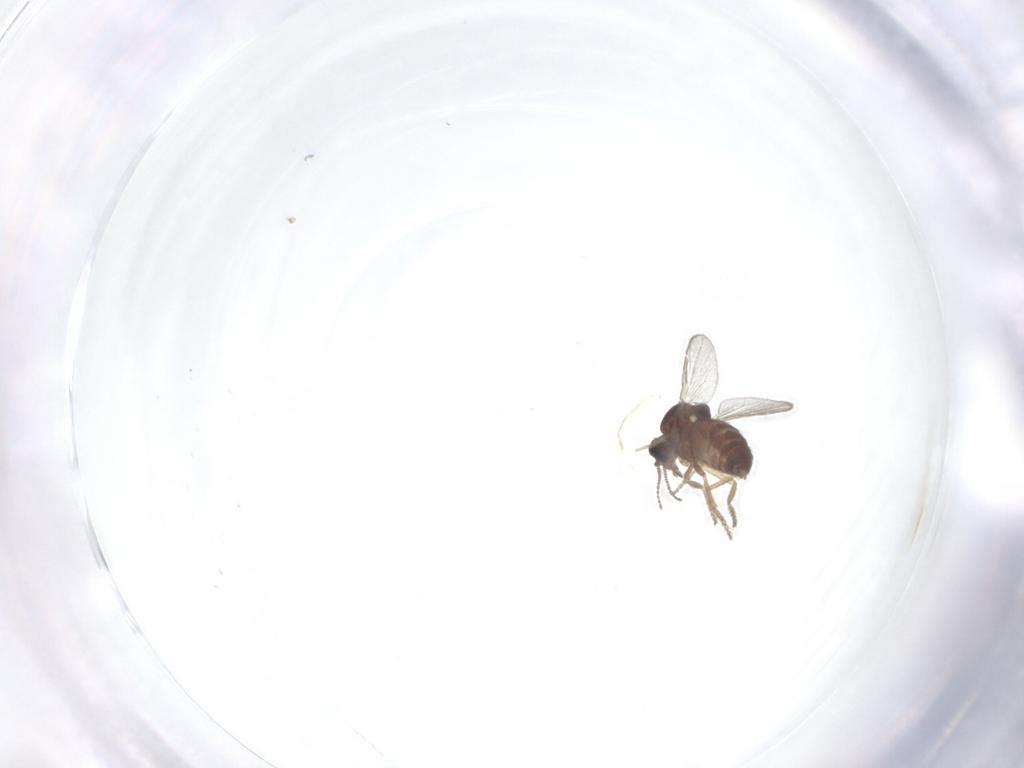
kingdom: Animalia
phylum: Arthropoda
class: Insecta
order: Diptera
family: Ceratopogonidae
